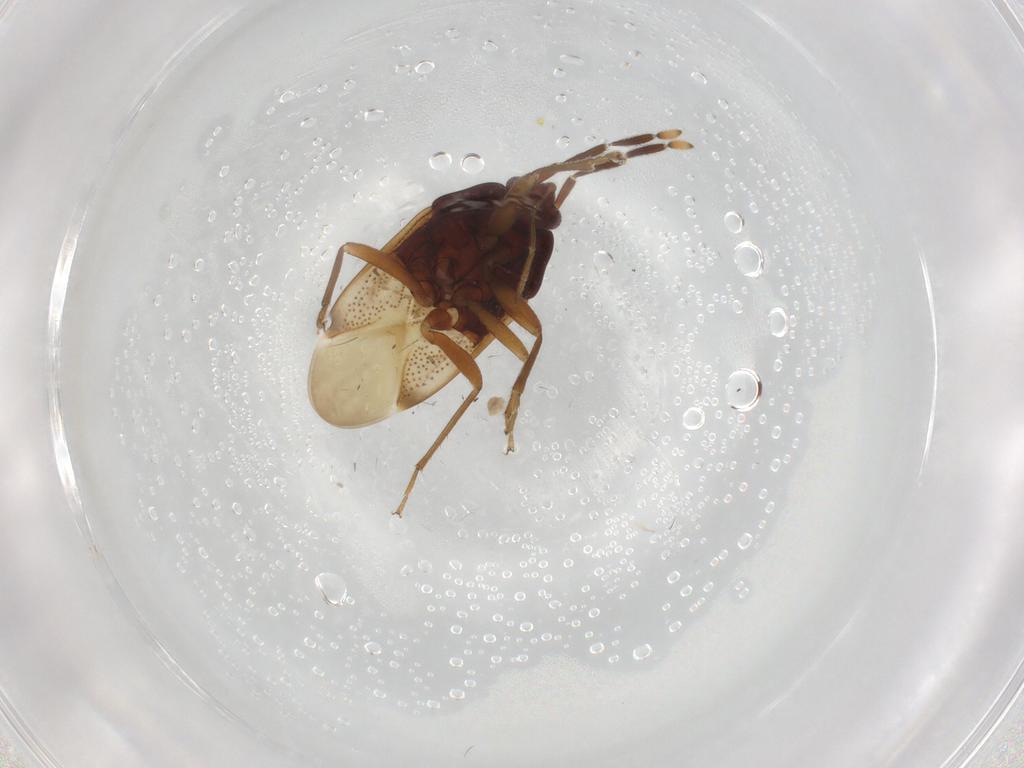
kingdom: Animalia
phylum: Arthropoda
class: Insecta
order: Hemiptera
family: Rhyparochromidae
